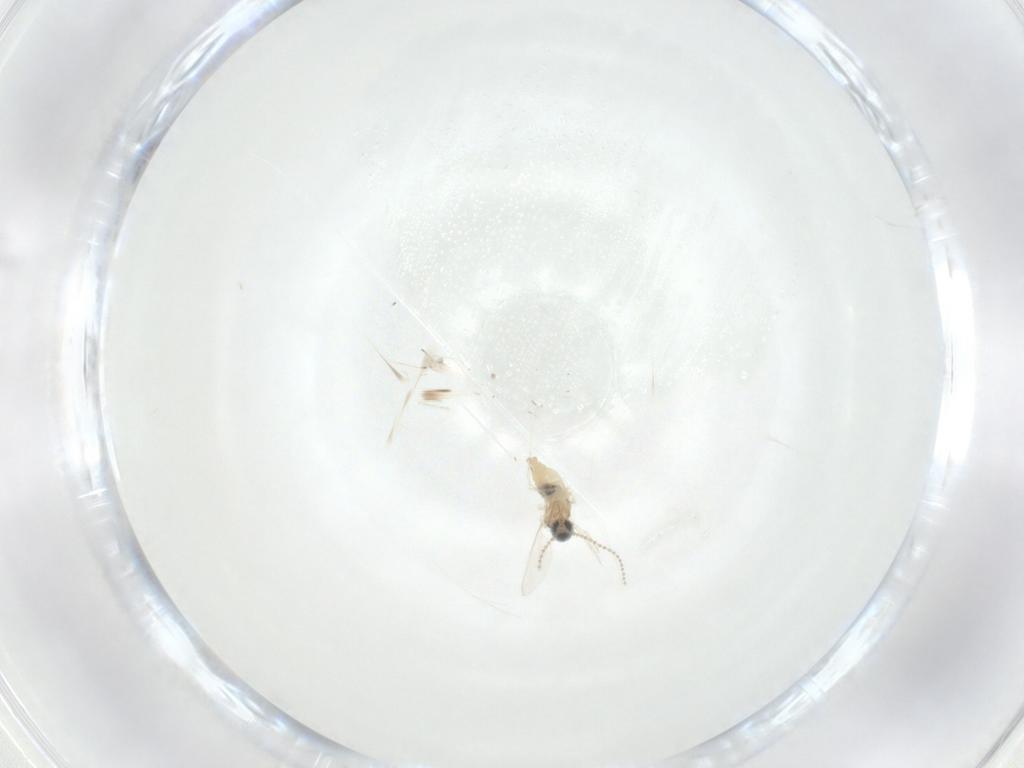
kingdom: Animalia
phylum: Arthropoda
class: Insecta
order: Diptera
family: Cecidomyiidae
